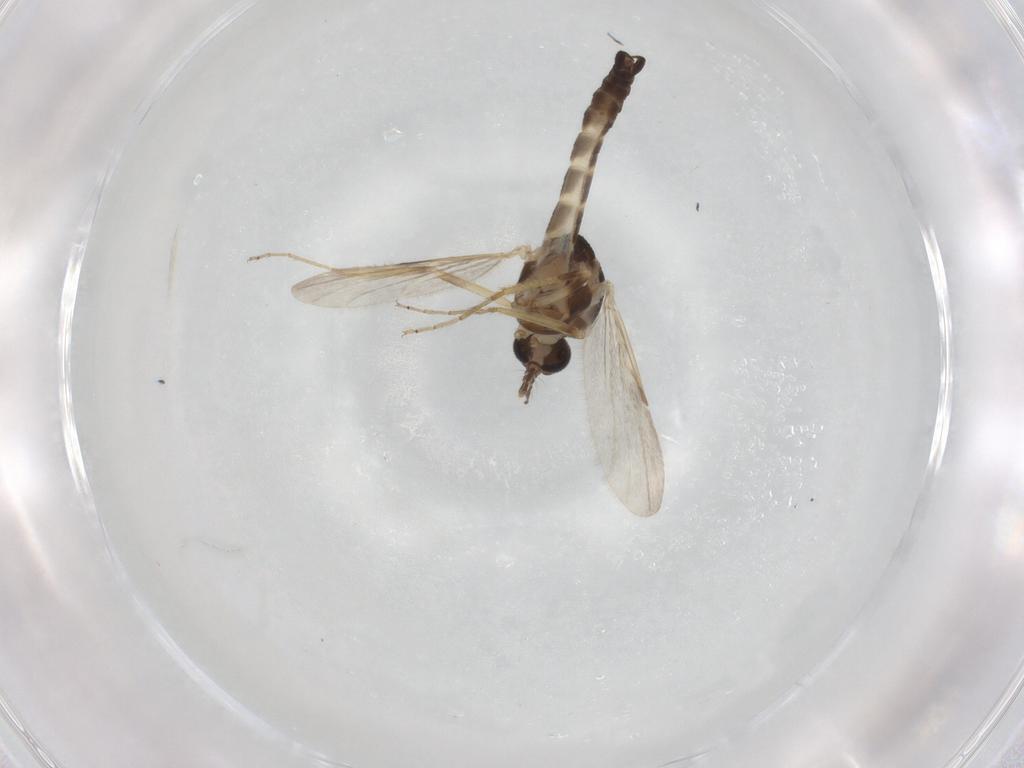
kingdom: Animalia
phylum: Arthropoda
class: Insecta
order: Diptera
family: Ceratopogonidae
